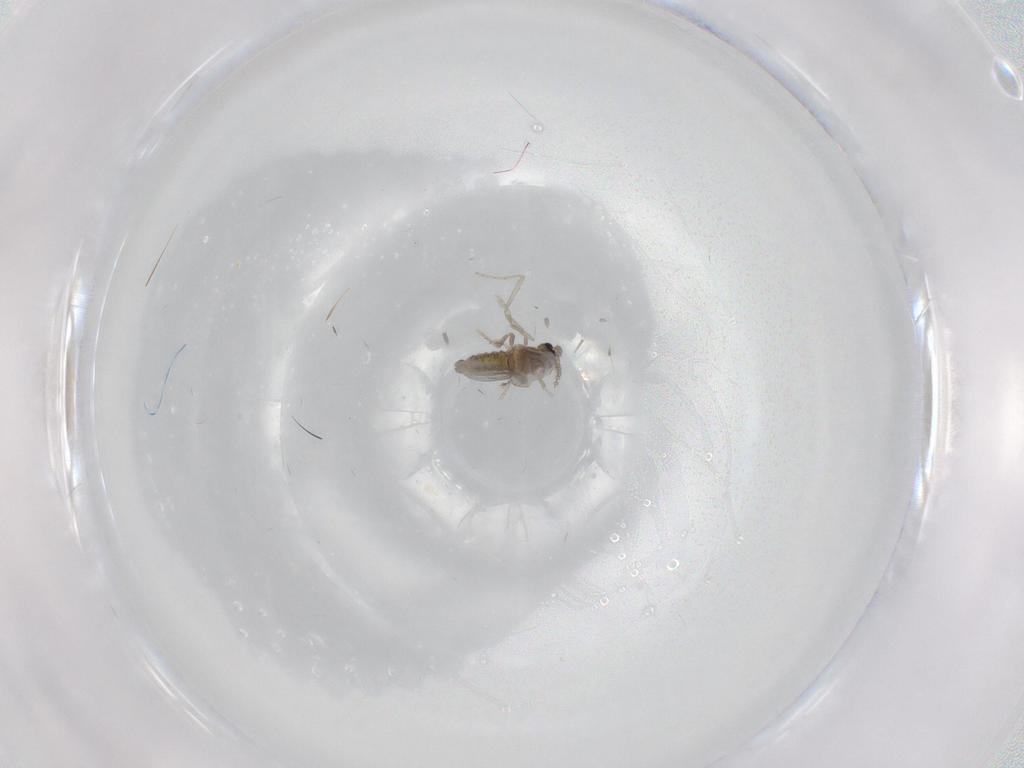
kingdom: Animalia
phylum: Arthropoda
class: Insecta
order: Diptera
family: Cecidomyiidae
